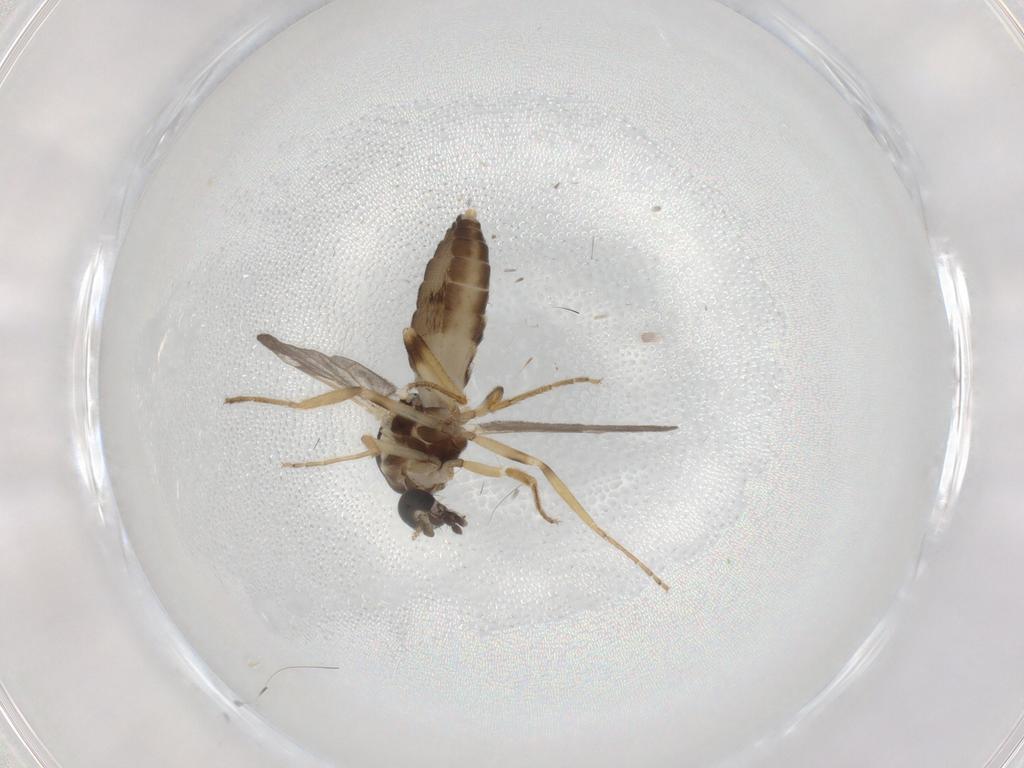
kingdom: Animalia
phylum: Arthropoda
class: Insecta
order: Diptera
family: Ceratopogonidae
